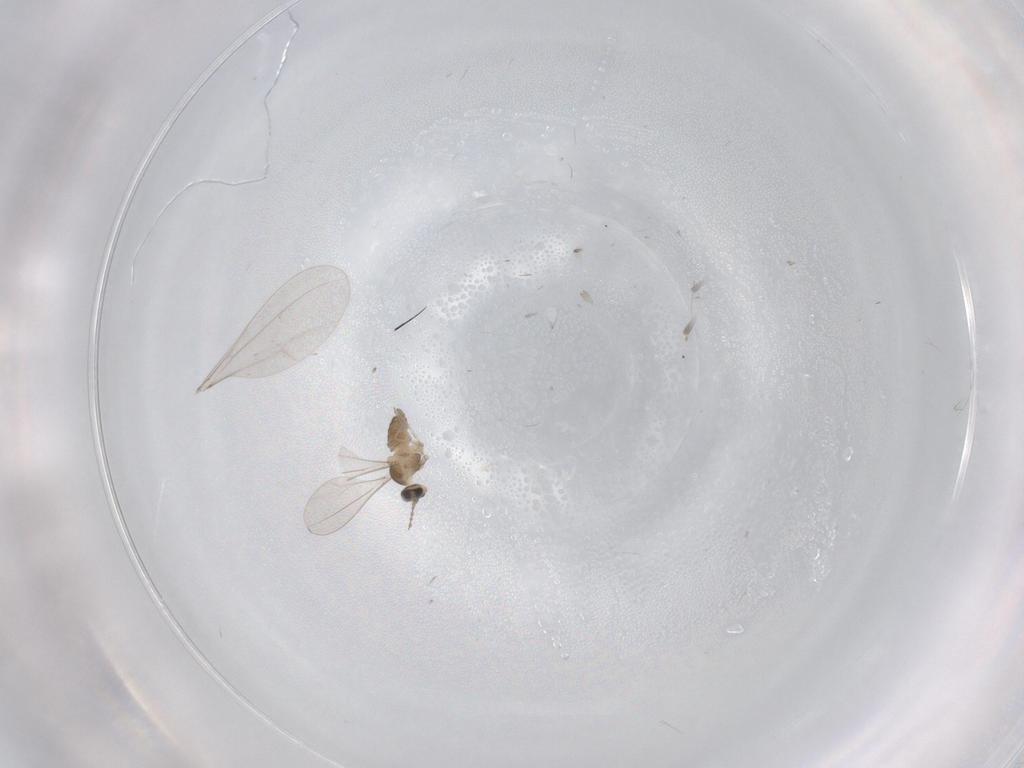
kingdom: Animalia
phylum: Arthropoda
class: Insecta
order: Diptera
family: Cecidomyiidae
